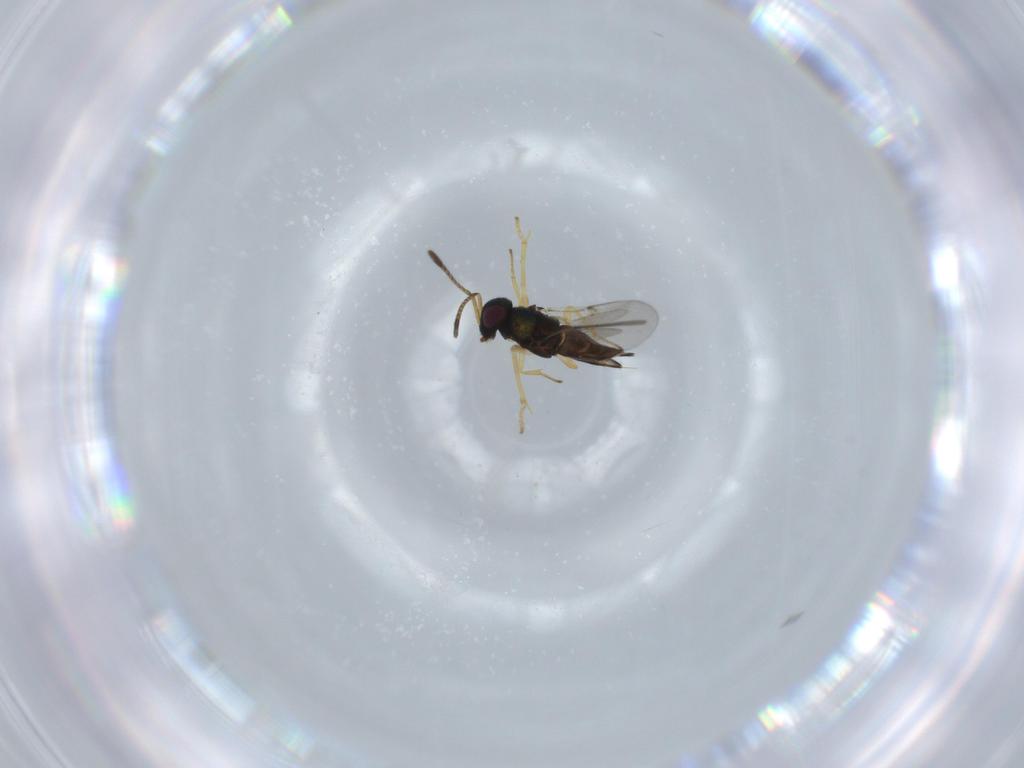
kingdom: Animalia
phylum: Arthropoda
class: Insecta
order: Hymenoptera
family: Encyrtidae
